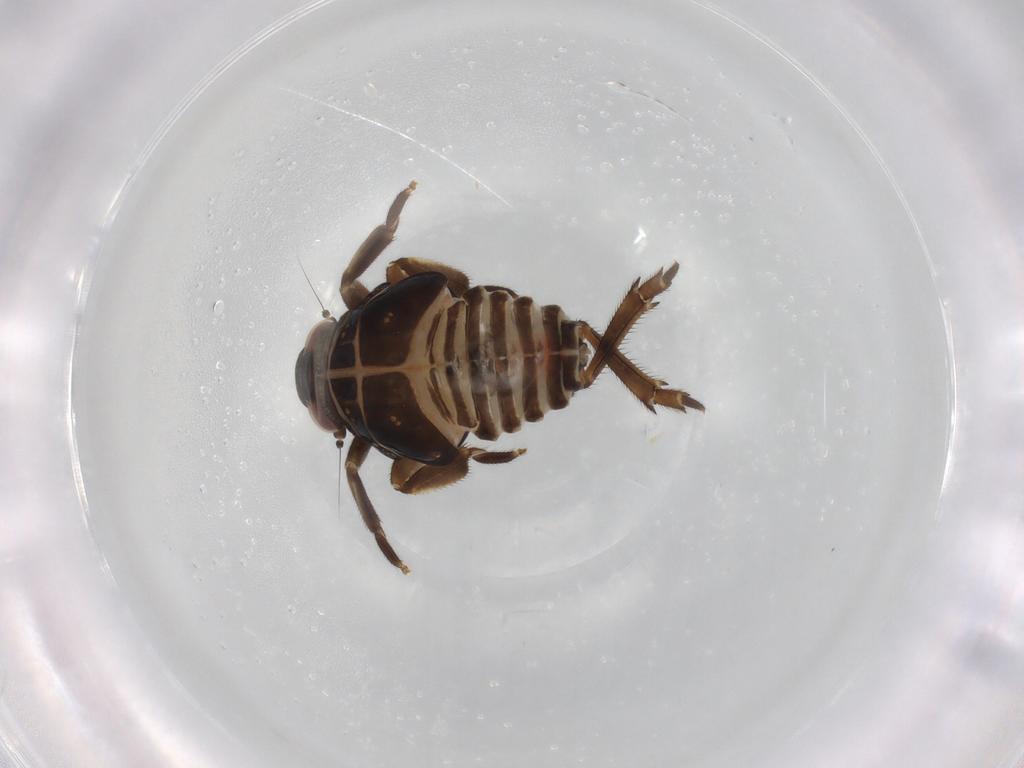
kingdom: Animalia
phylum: Arthropoda
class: Insecta
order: Hemiptera
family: Fulgoroidea_incertae_sedis
